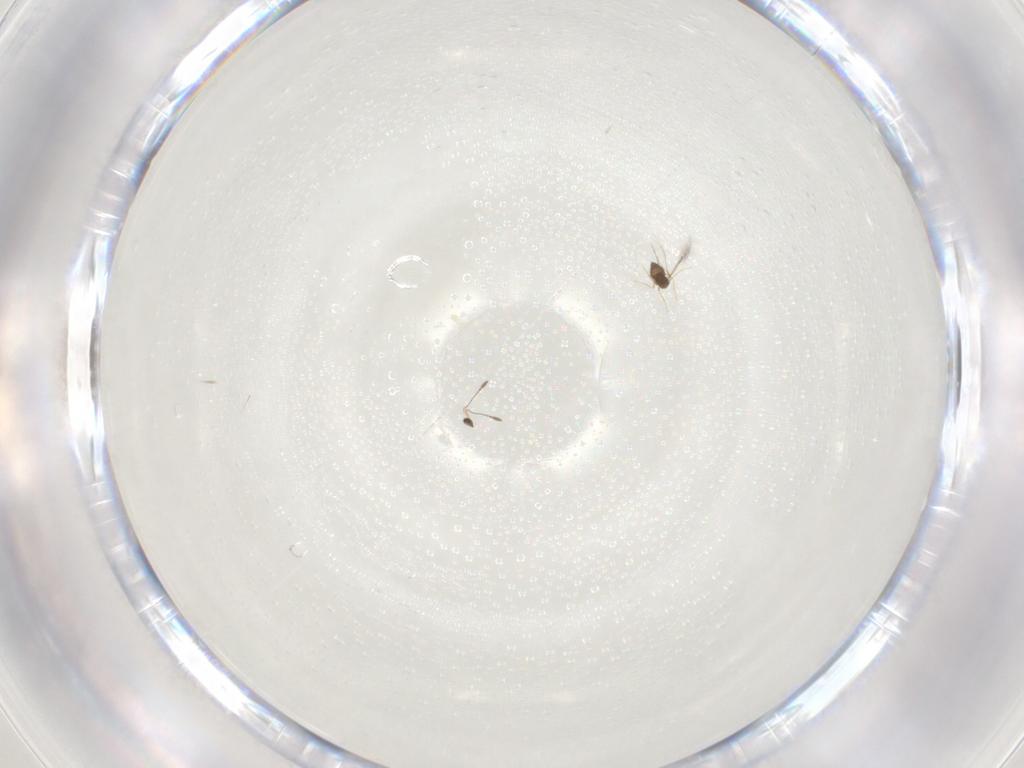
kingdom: Animalia
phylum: Arthropoda
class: Insecta
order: Hymenoptera
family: Mymaridae
